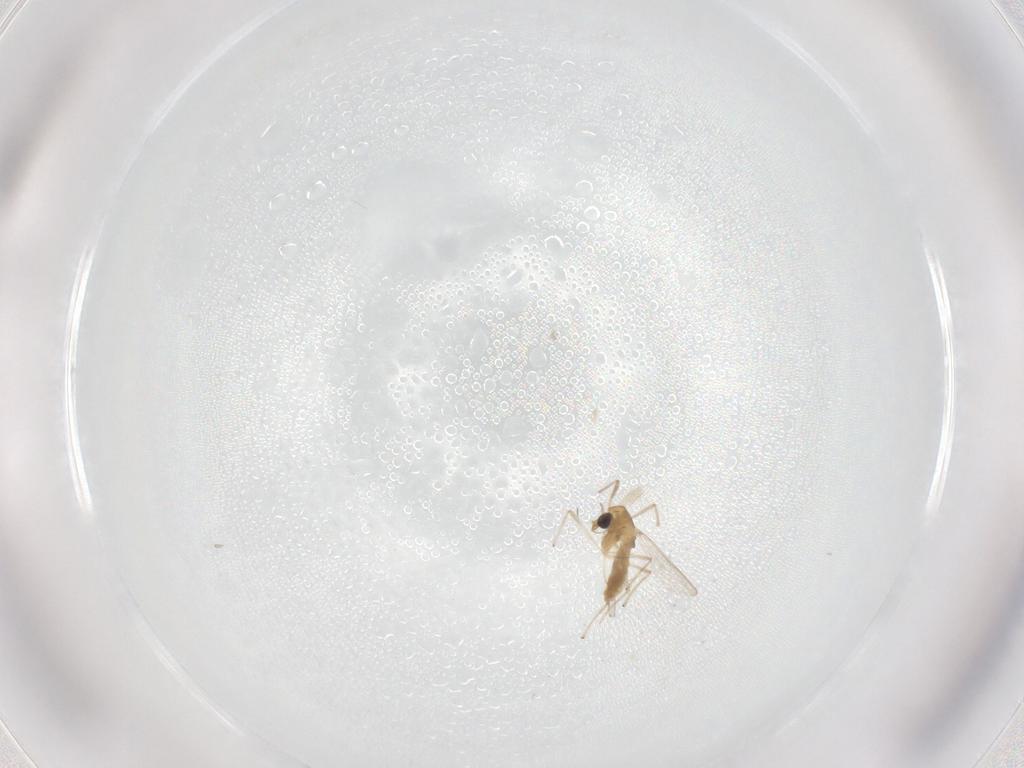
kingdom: Animalia
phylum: Arthropoda
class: Insecta
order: Diptera
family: Chironomidae
